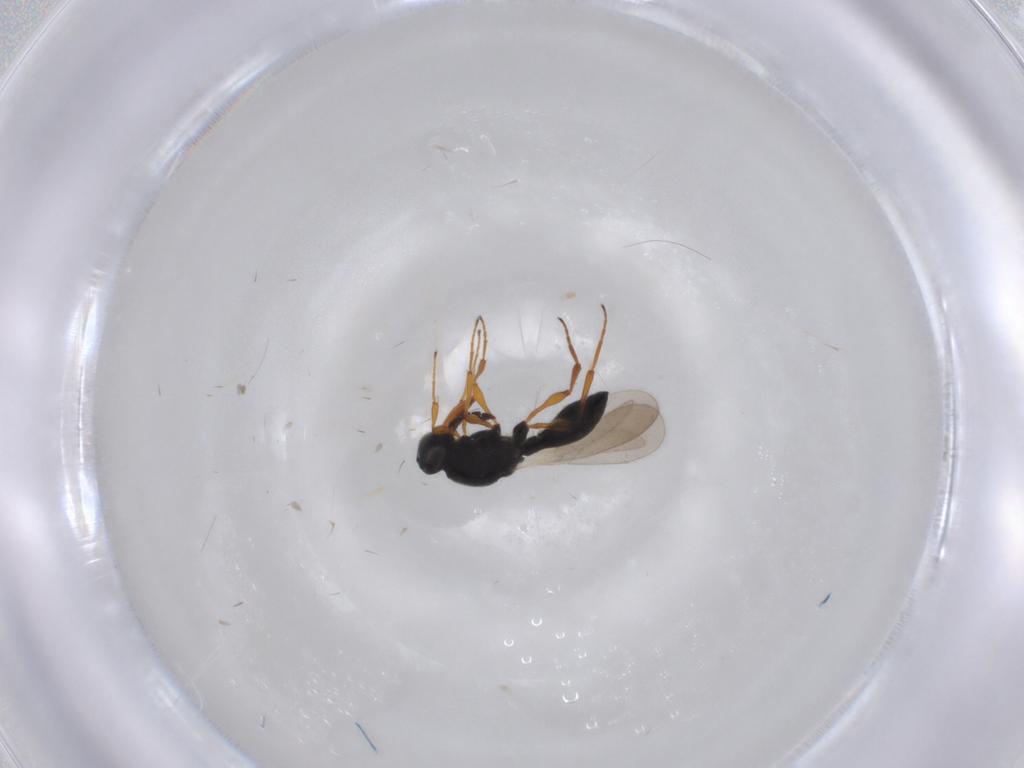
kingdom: Animalia
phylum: Arthropoda
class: Insecta
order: Hymenoptera
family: Platygastridae
